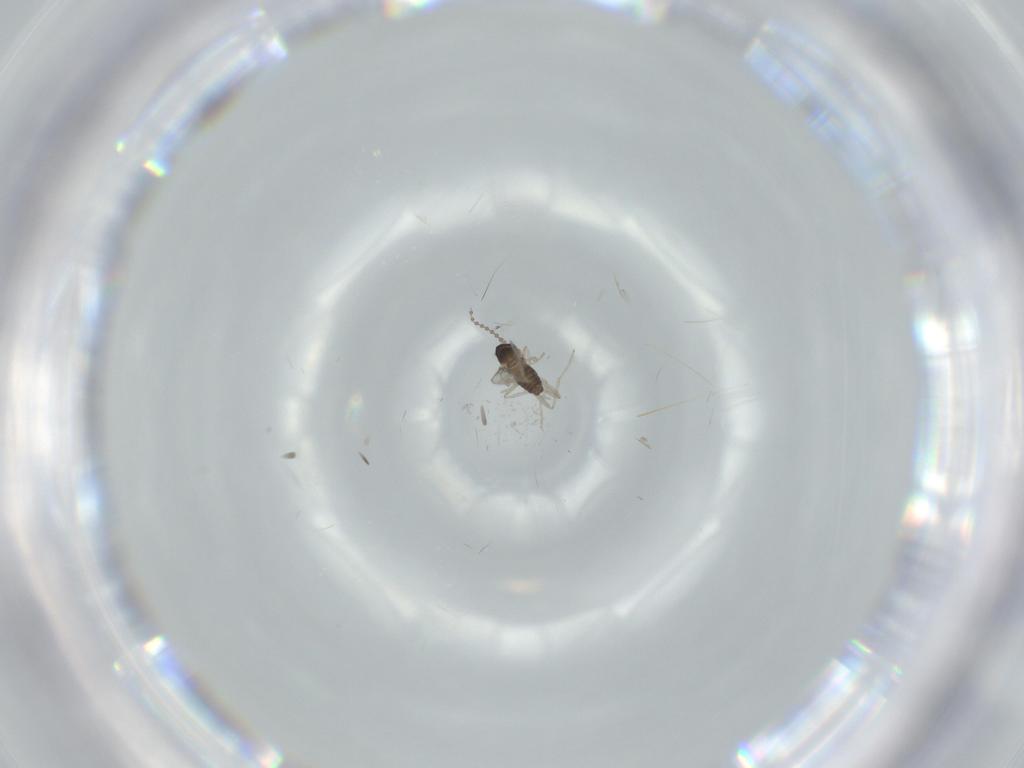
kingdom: Animalia
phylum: Arthropoda
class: Insecta
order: Diptera
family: Cecidomyiidae
